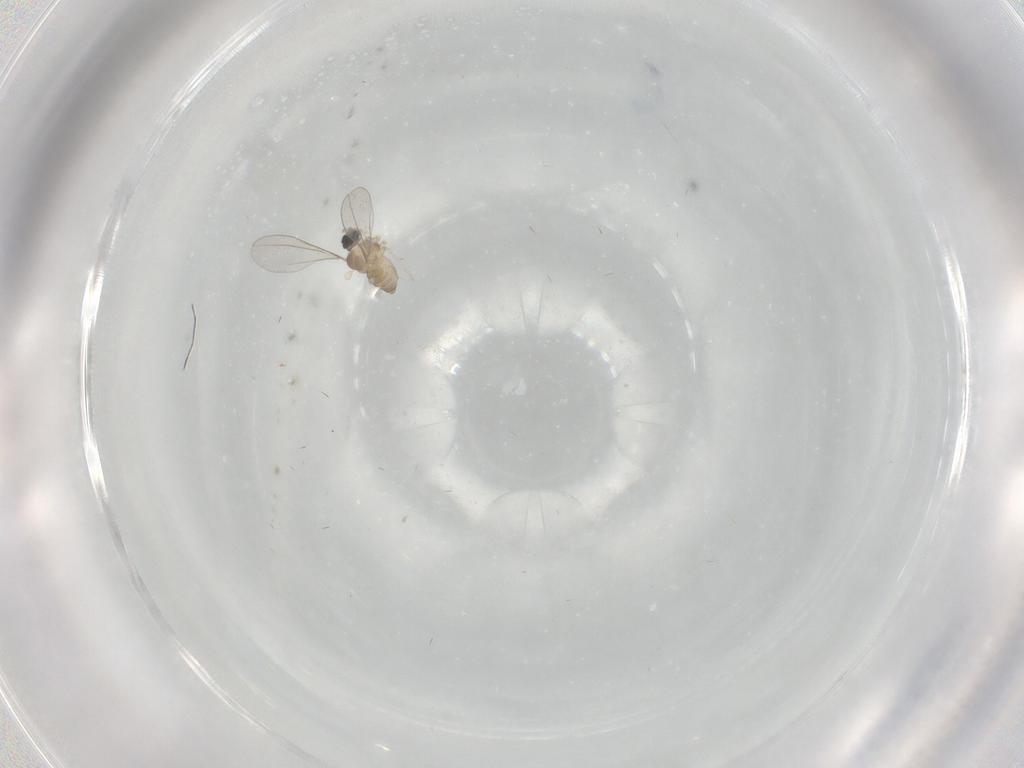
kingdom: Animalia
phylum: Arthropoda
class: Insecta
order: Diptera
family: Cecidomyiidae
